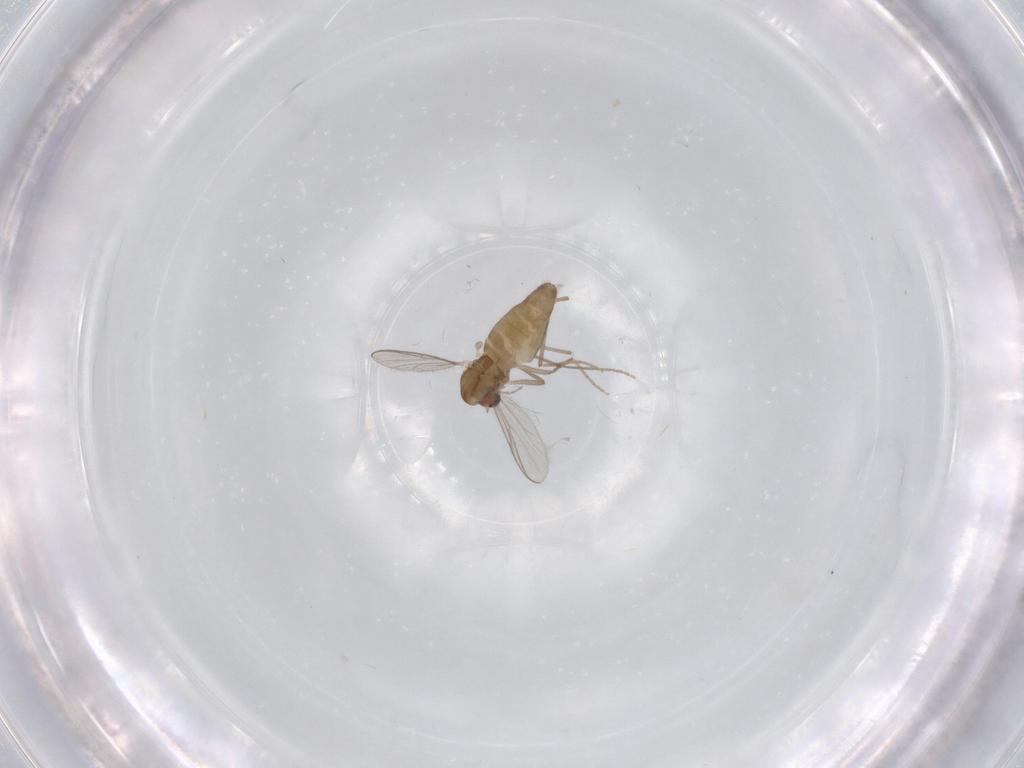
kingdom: Animalia
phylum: Arthropoda
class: Insecta
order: Diptera
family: Chironomidae
